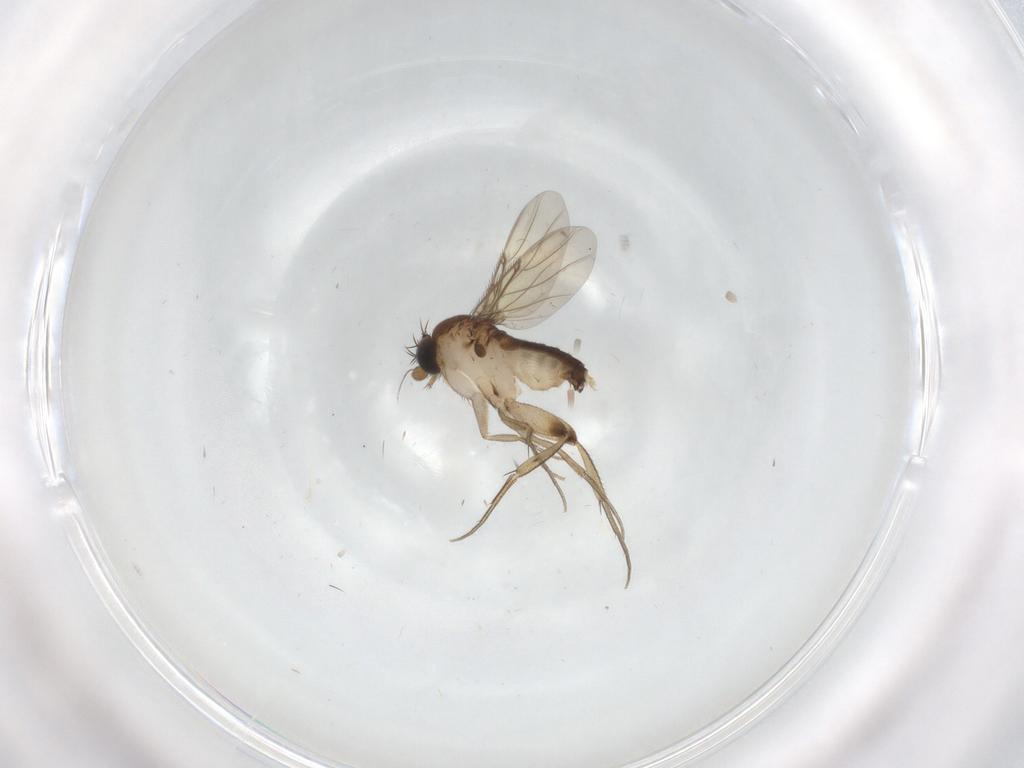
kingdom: Animalia
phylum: Arthropoda
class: Insecta
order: Diptera
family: Phoridae
